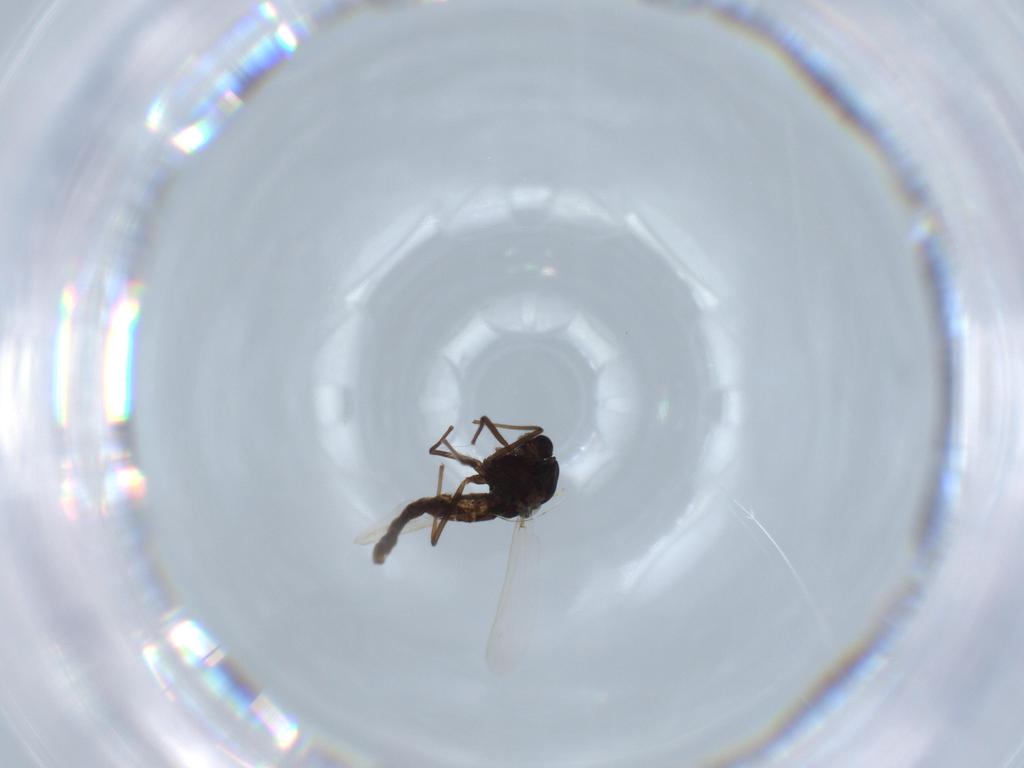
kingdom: Animalia
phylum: Arthropoda
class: Insecta
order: Diptera
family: Chironomidae
